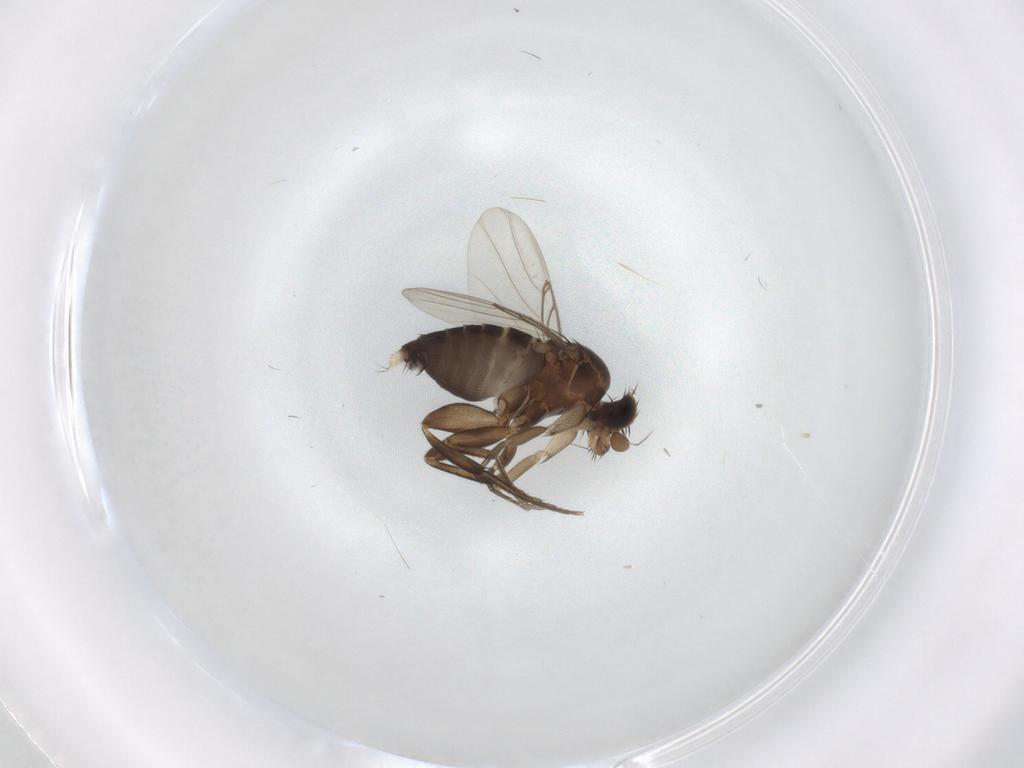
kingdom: Animalia
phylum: Arthropoda
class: Insecta
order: Diptera
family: Phoridae
